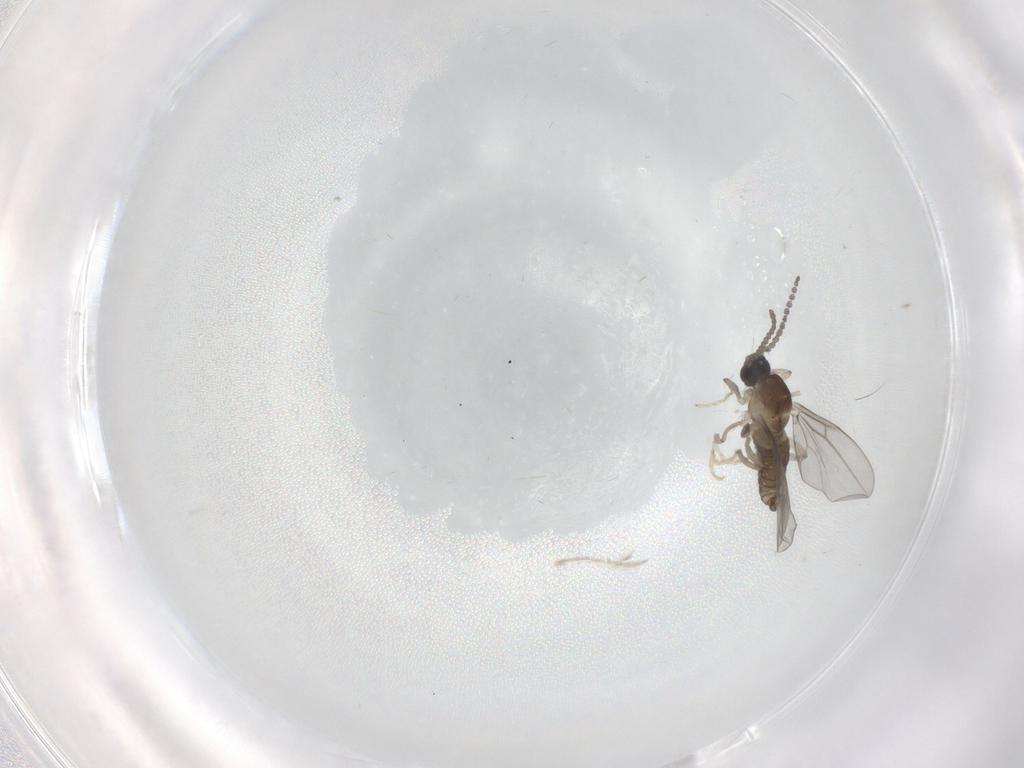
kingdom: Animalia
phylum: Arthropoda
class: Insecta
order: Diptera
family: Cecidomyiidae
